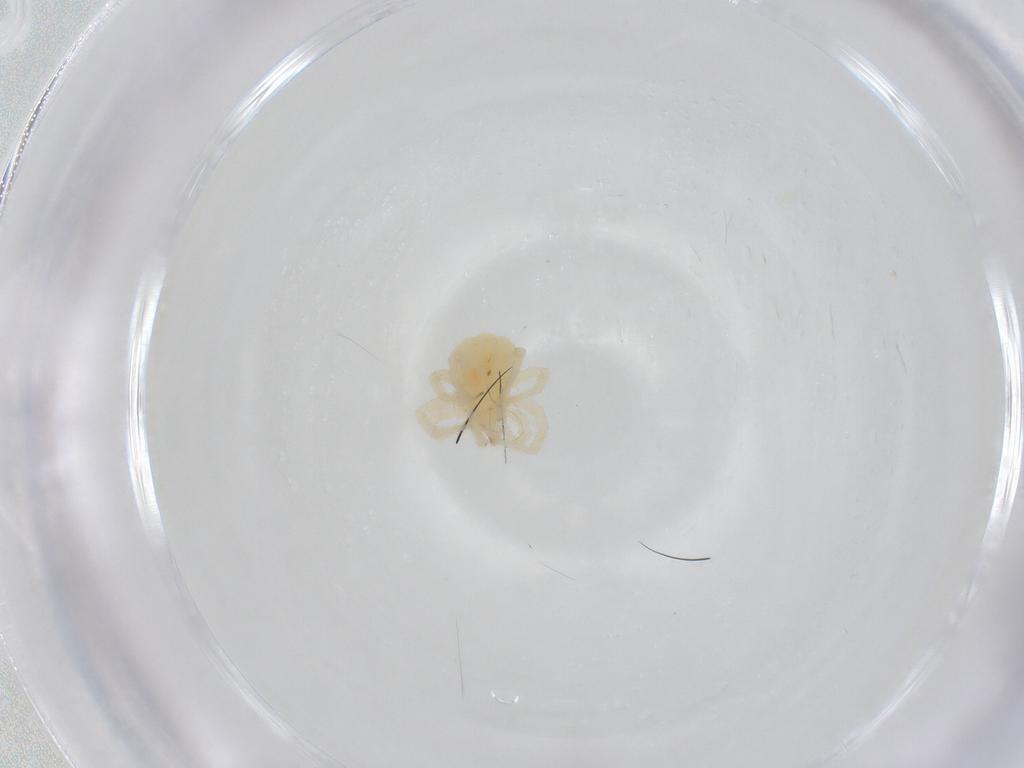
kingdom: Animalia
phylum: Arthropoda
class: Arachnida
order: Trombidiformes
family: Anystidae
